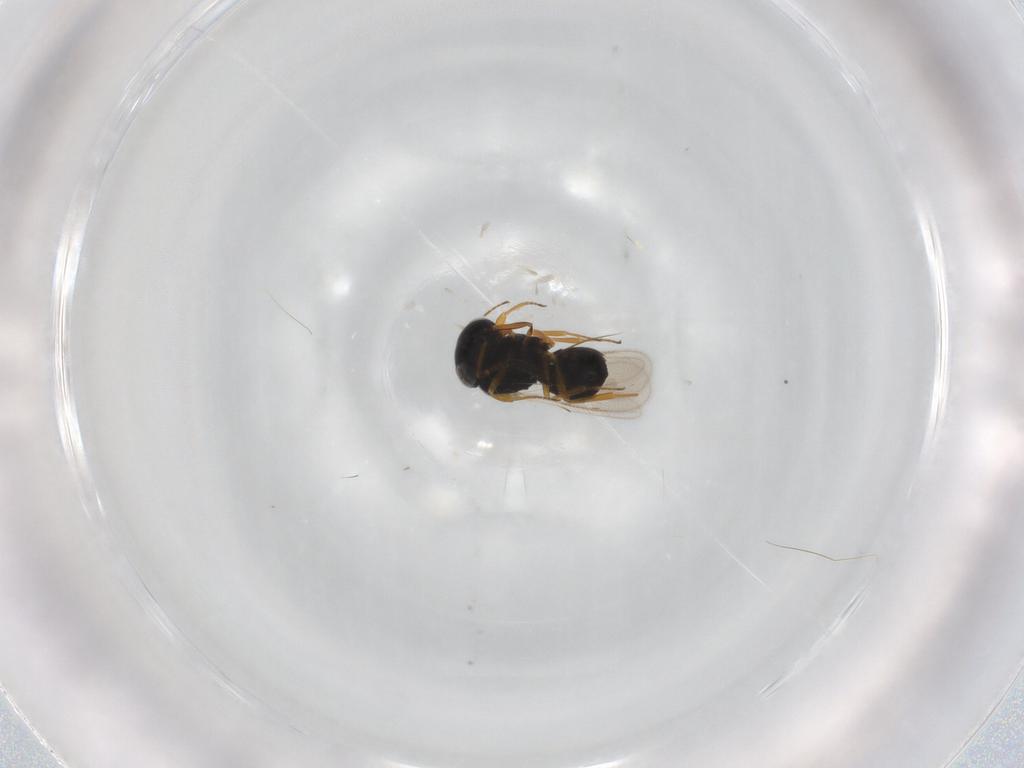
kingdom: Animalia
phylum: Arthropoda
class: Insecta
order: Hymenoptera
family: Scelionidae
